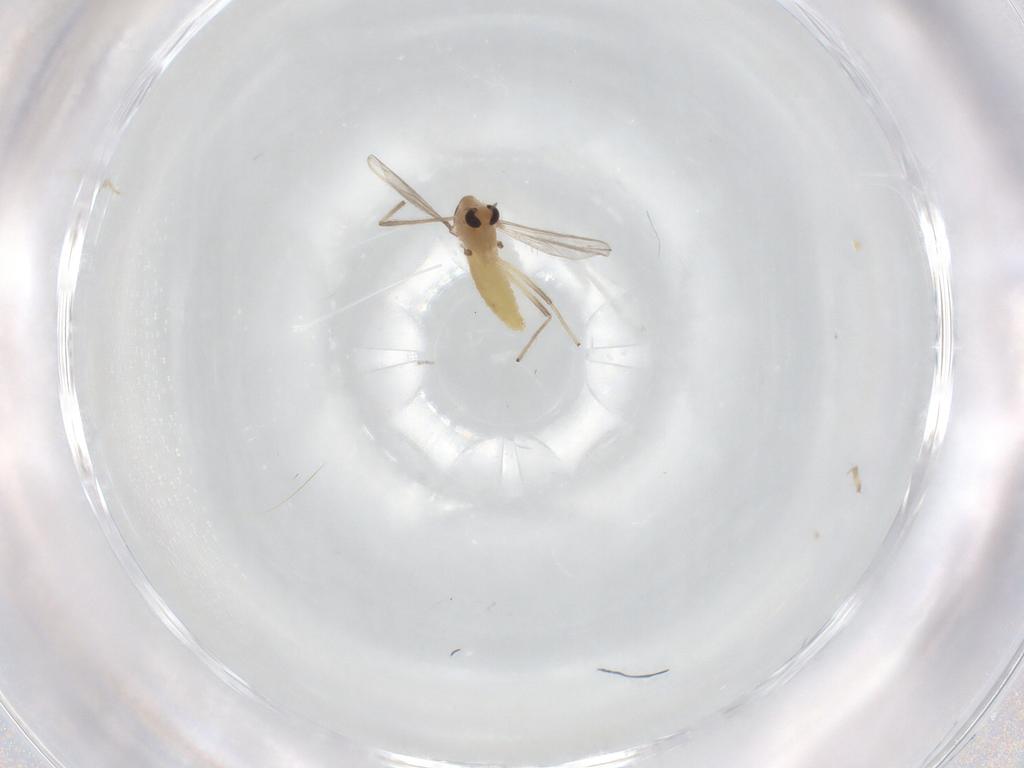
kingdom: Animalia
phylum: Arthropoda
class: Insecta
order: Diptera
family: Chironomidae
